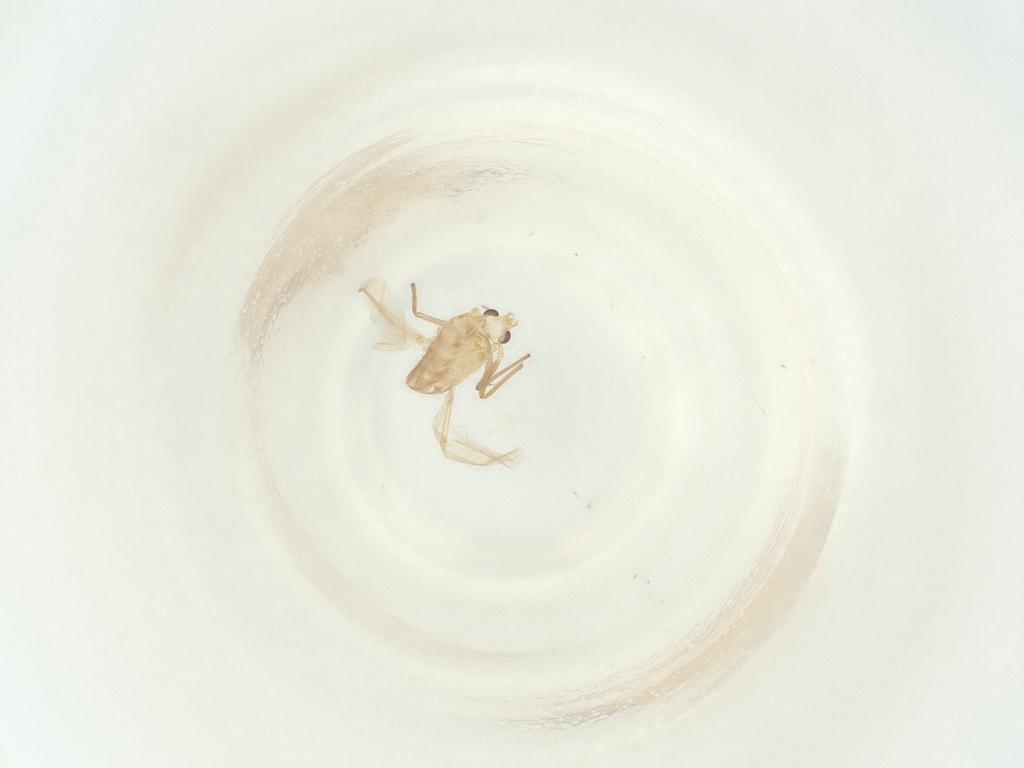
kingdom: Animalia
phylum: Arthropoda
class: Insecta
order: Diptera
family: Chironomidae
